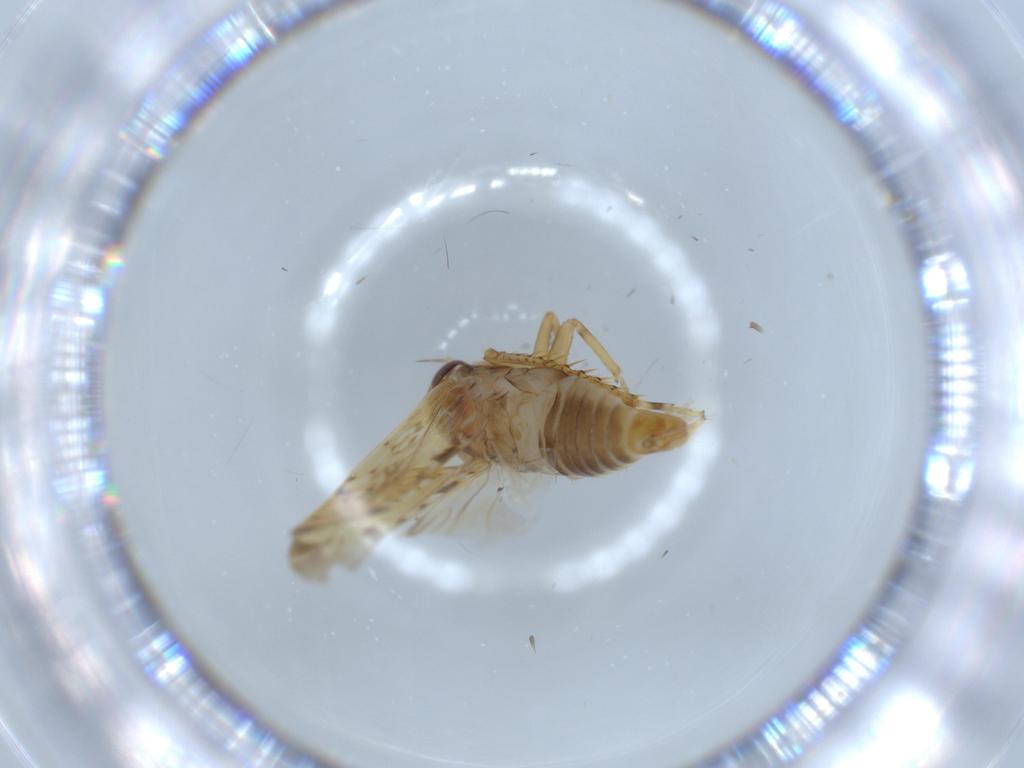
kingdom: Animalia
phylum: Arthropoda
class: Insecta
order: Hemiptera
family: Cicadellidae
